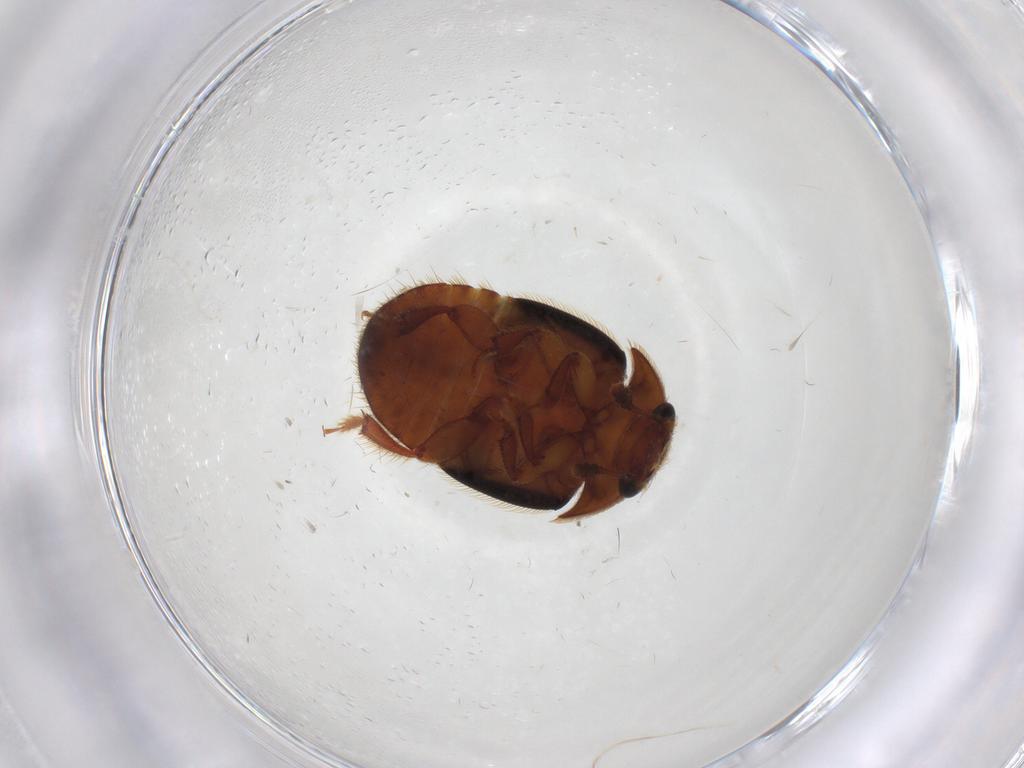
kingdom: Animalia
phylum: Arthropoda
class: Insecta
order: Coleoptera
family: Nitidulidae
